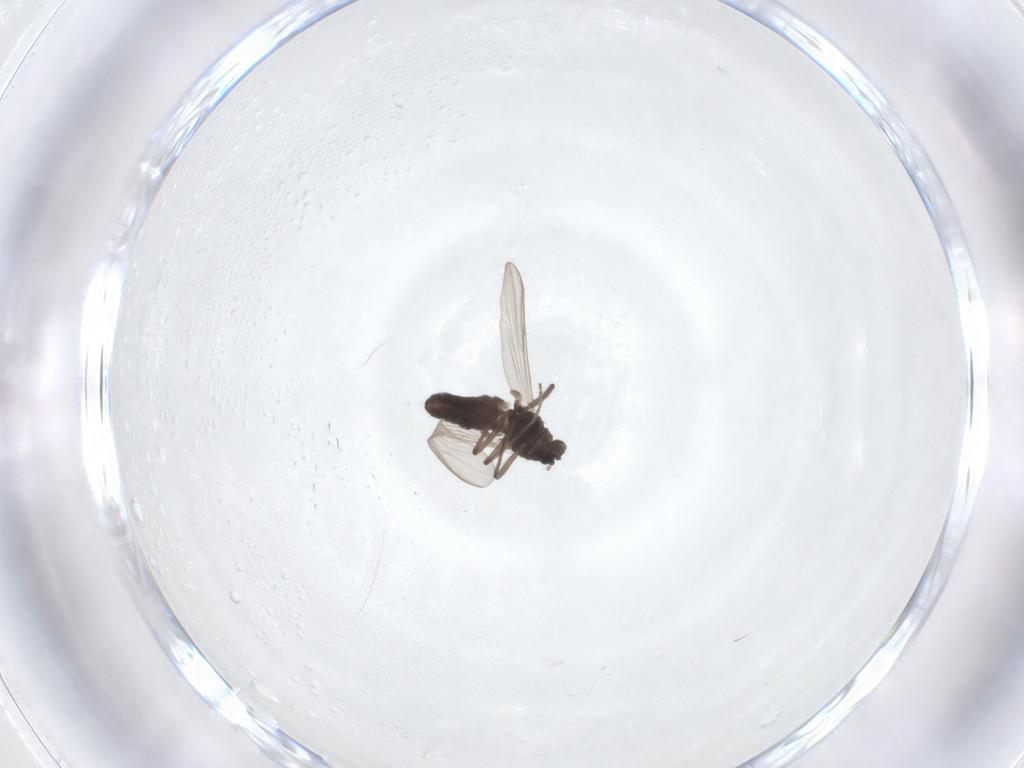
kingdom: Animalia
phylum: Arthropoda
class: Insecta
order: Diptera
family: Chironomidae
